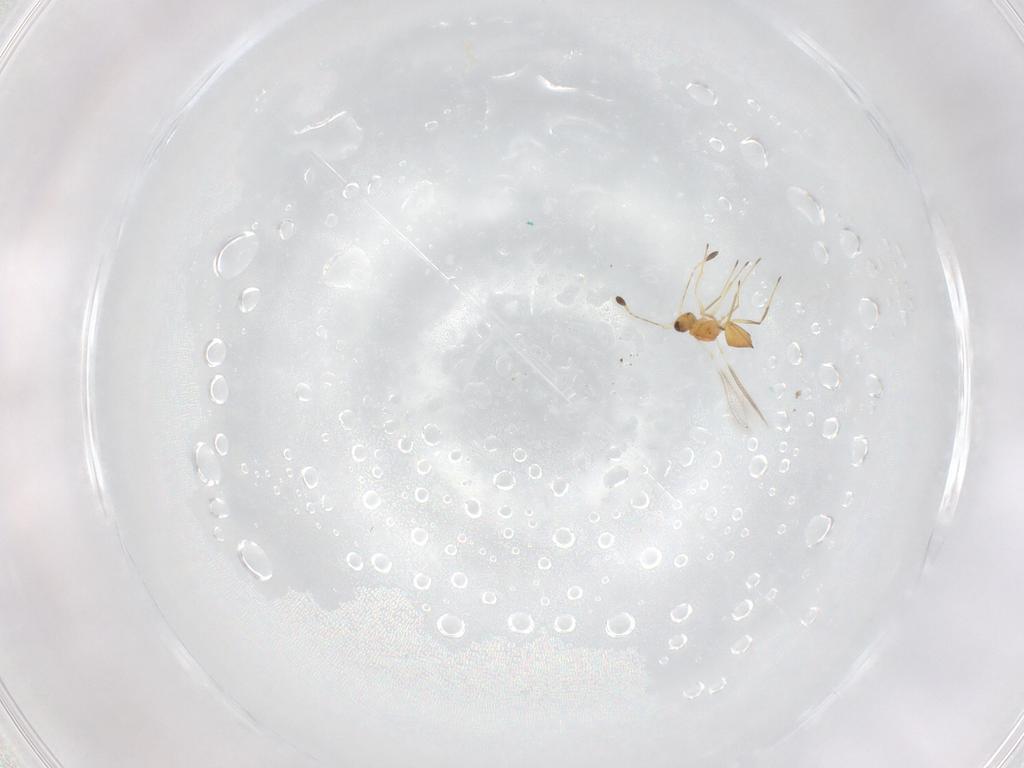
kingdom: Animalia
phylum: Arthropoda
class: Insecta
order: Hymenoptera
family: Mymaridae
